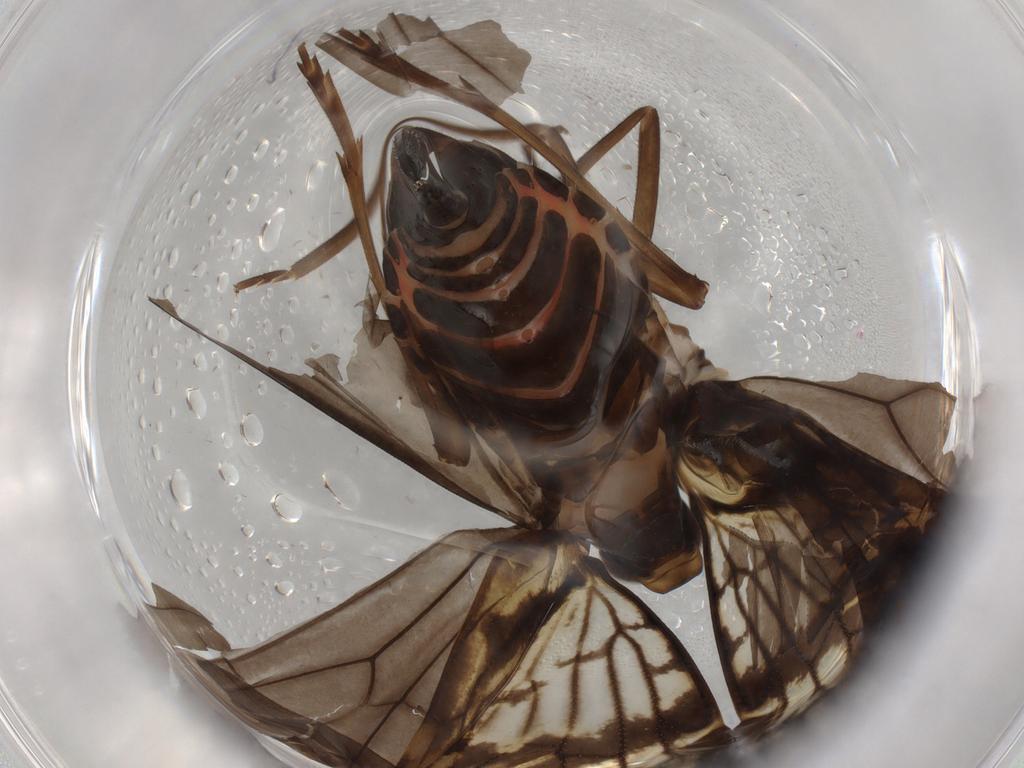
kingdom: Animalia
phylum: Arthropoda
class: Insecta
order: Hemiptera
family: Cixiidae
